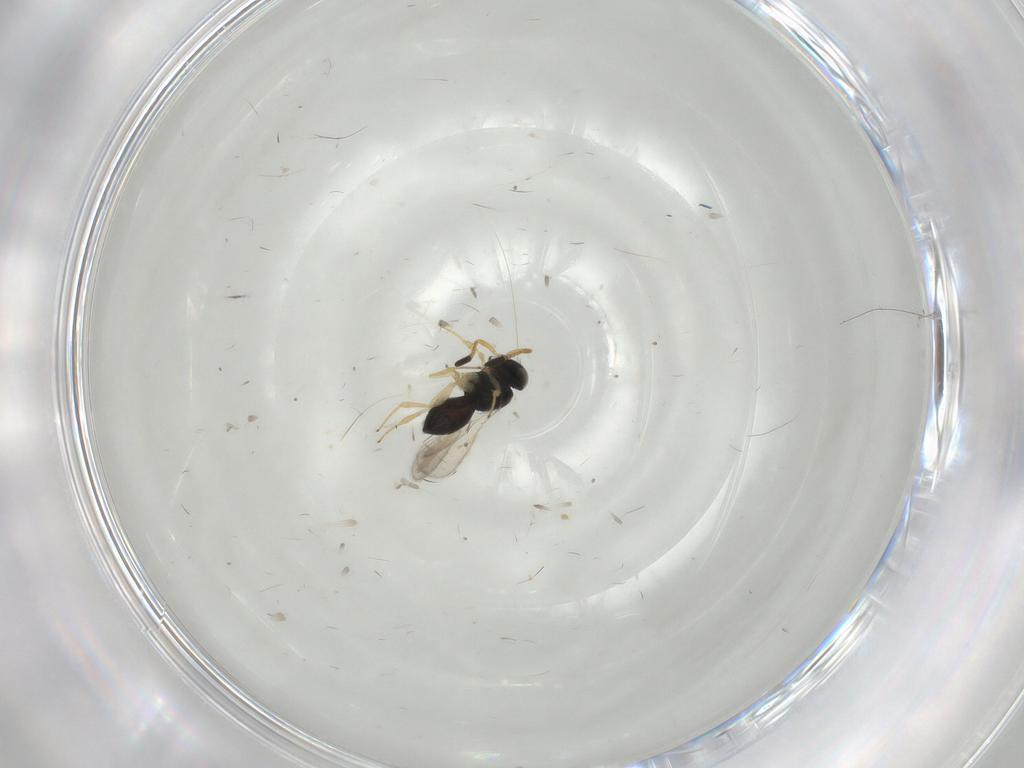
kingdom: Animalia
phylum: Arthropoda
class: Insecta
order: Hymenoptera
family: Scelionidae
